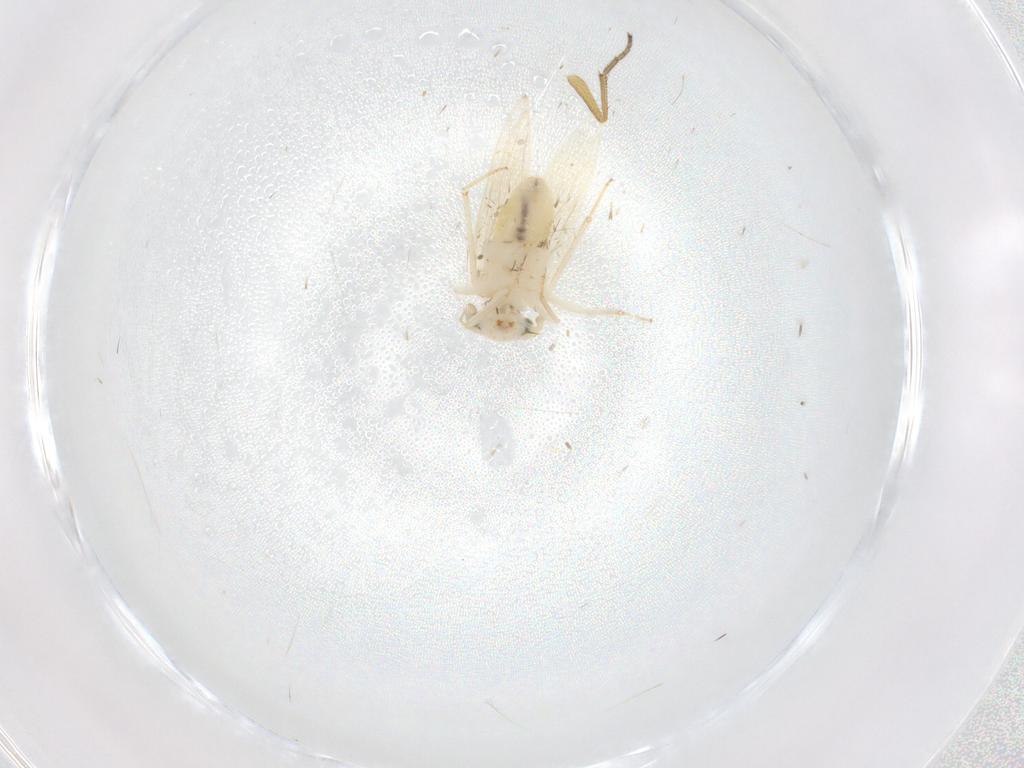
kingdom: Animalia
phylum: Arthropoda
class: Insecta
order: Psocodea
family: Lepidopsocidae
